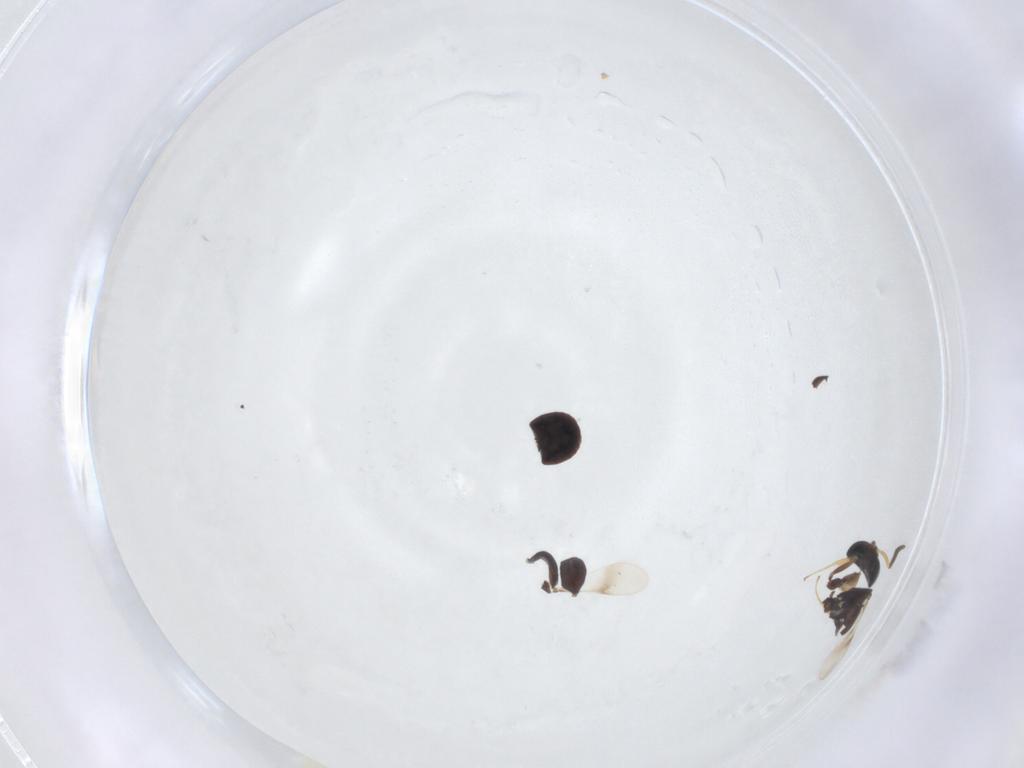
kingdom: Animalia
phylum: Arthropoda
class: Insecta
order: Hymenoptera
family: Scelionidae
